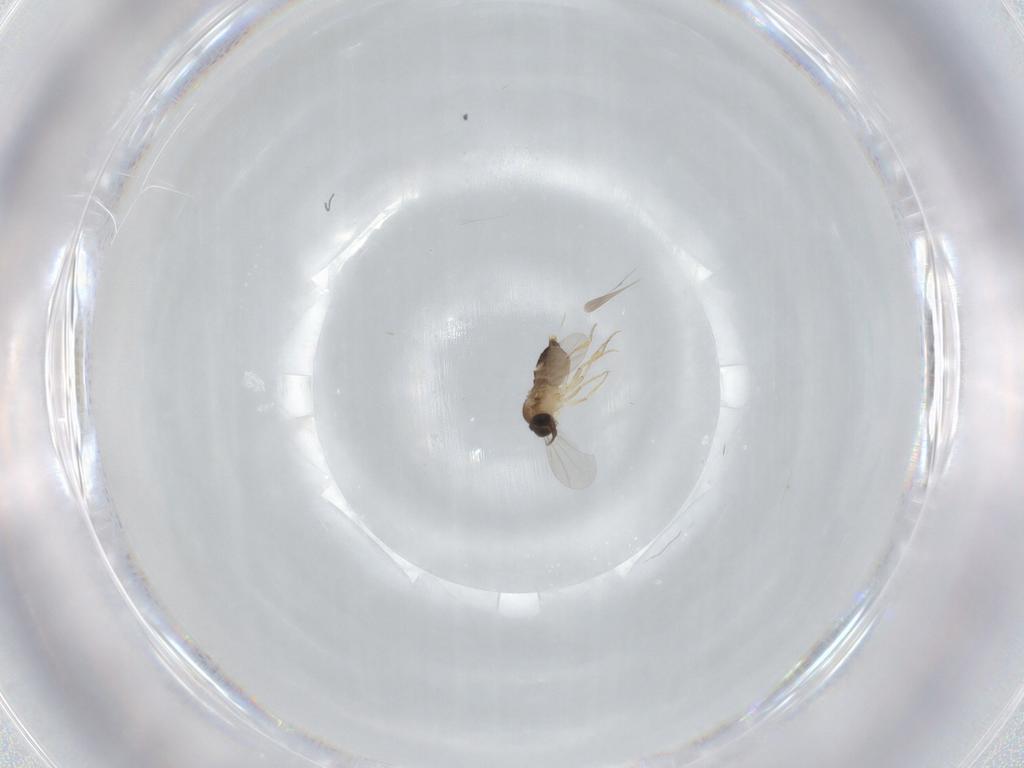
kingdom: Animalia
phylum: Arthropoda
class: Insecta
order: Diptera
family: Phoridae
